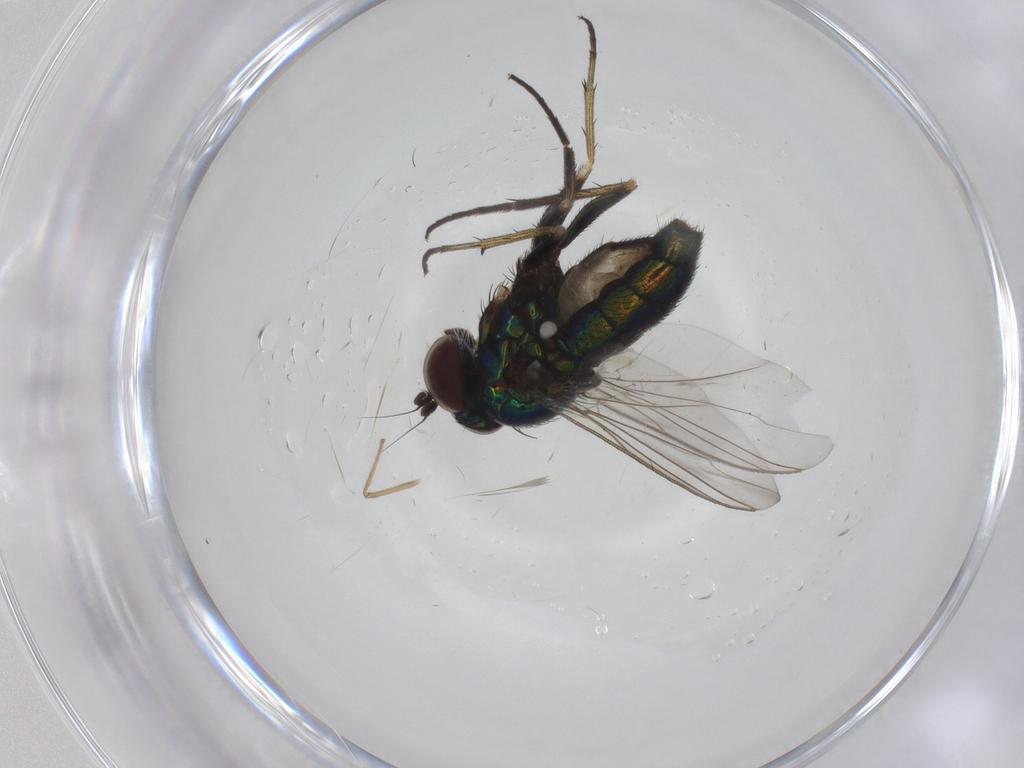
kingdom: Animalia
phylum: Arthropoda
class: Insecta
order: Diptera
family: Dolichopodidae
